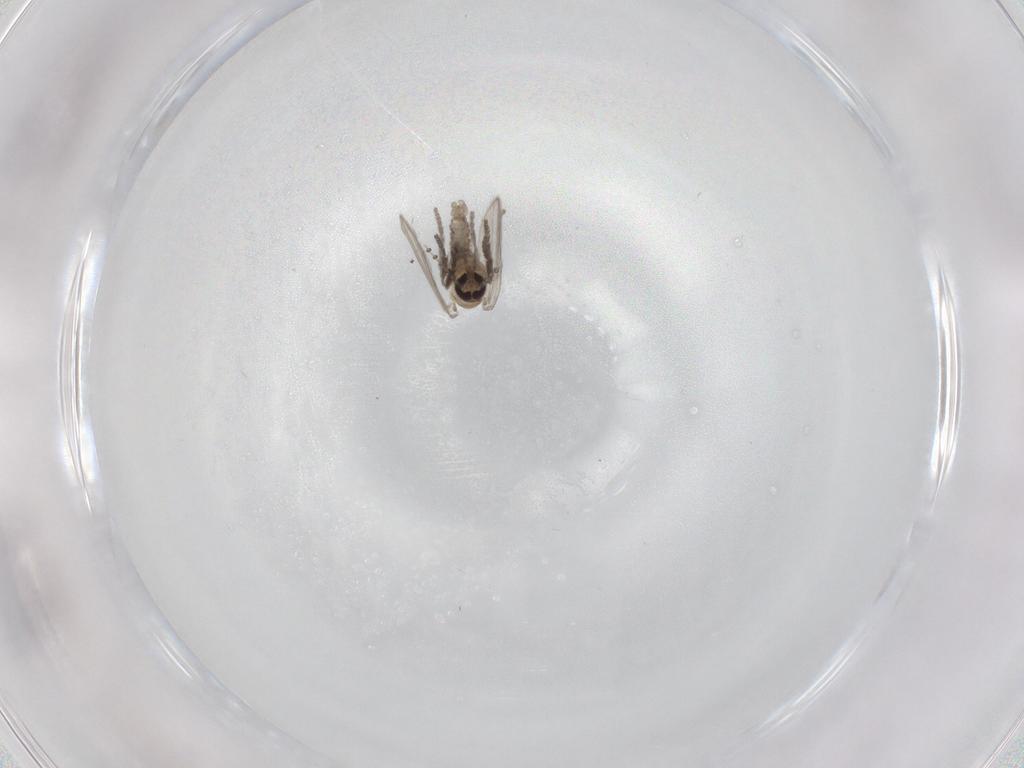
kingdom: Animalia
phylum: Arthropoda
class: Insecta
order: Diptera
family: Psychodidae
